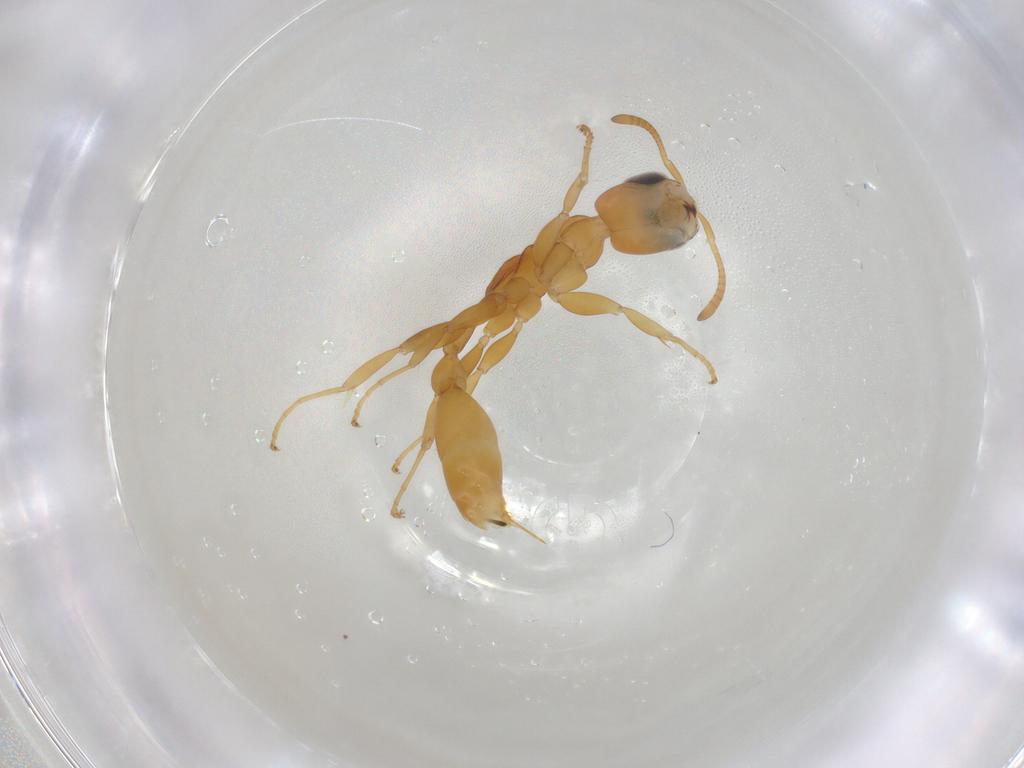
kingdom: Animalia
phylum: Arthropoda
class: Insecta
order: Hymenoptera
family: Formicidae
